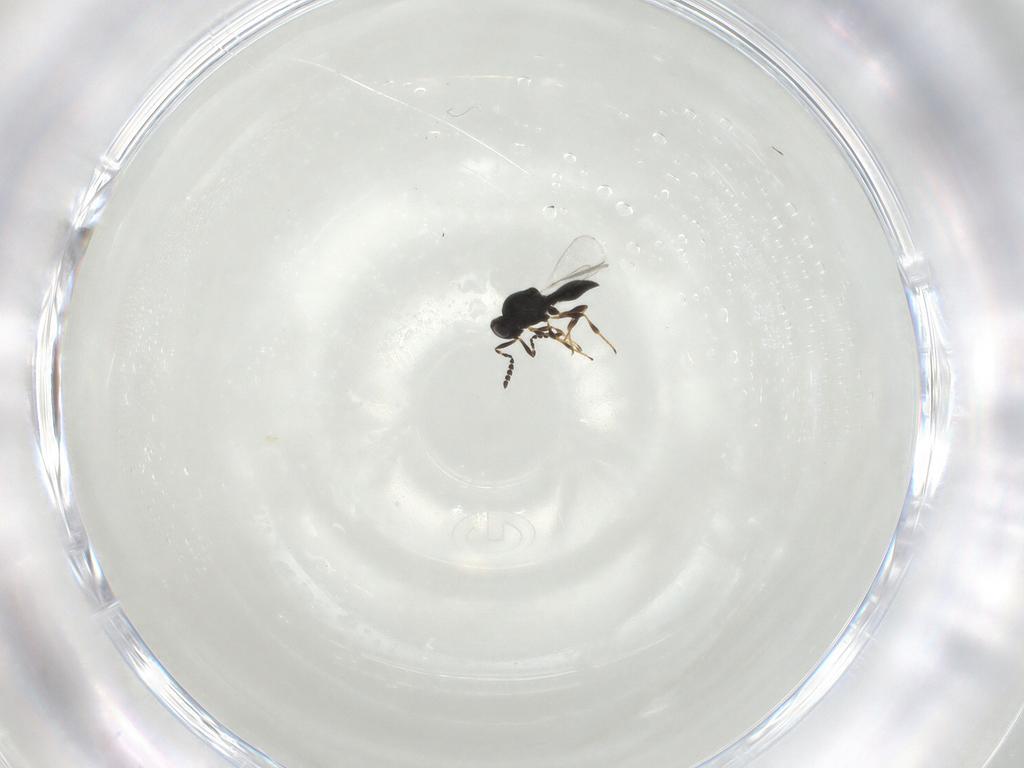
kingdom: Animalia
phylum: Arthropoda
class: Insecta
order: Hymenoptera
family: Platygastridae
